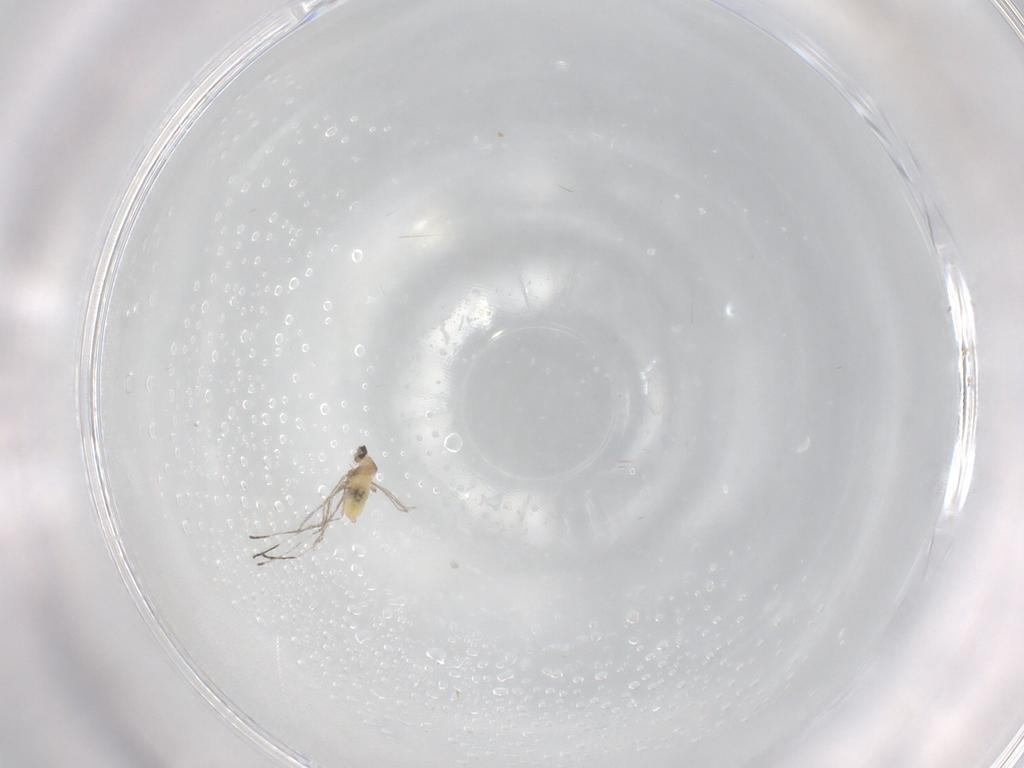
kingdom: Animalia
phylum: Arthropoda
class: Insecta
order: Diptera
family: Cecidomyiidae
